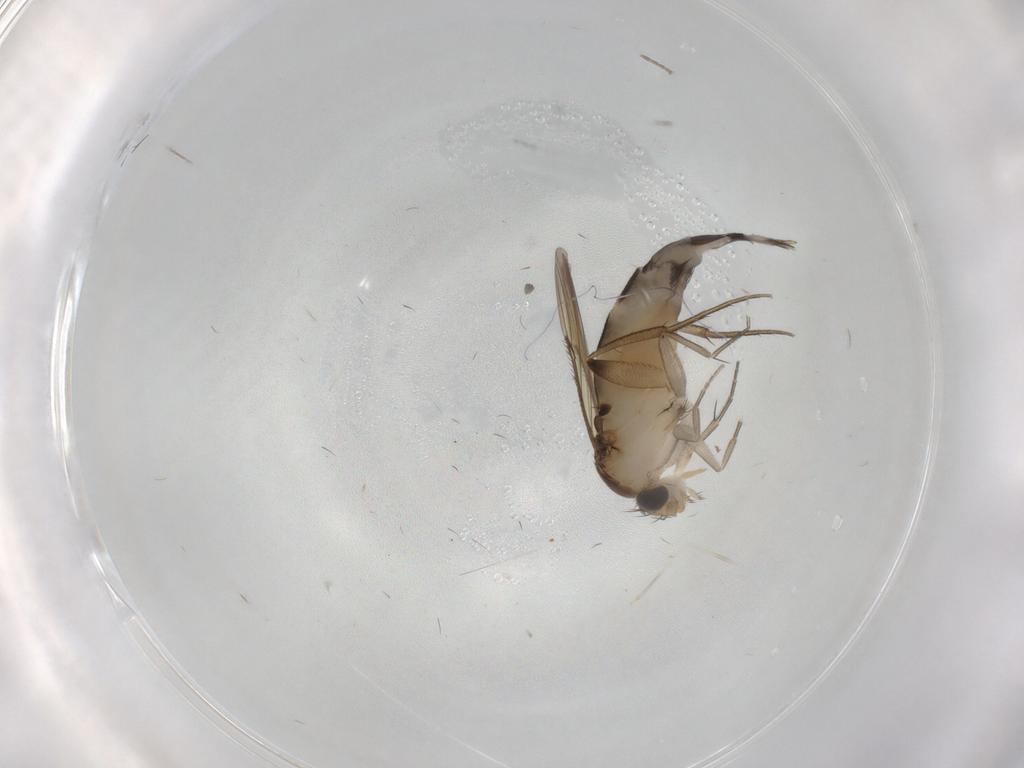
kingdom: Animalia
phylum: Arthropoda
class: Insecta
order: Diptera
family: Phoridae
